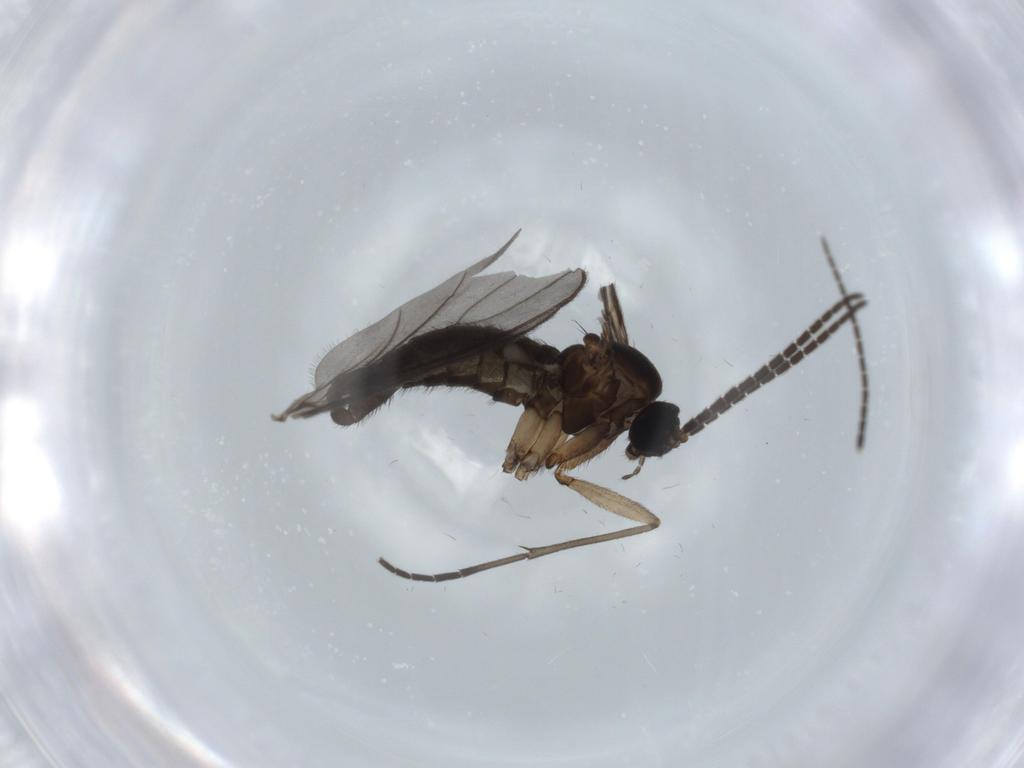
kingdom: Animalia
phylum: Arthropoda
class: Insecta
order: Diptera
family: Sciaridae
